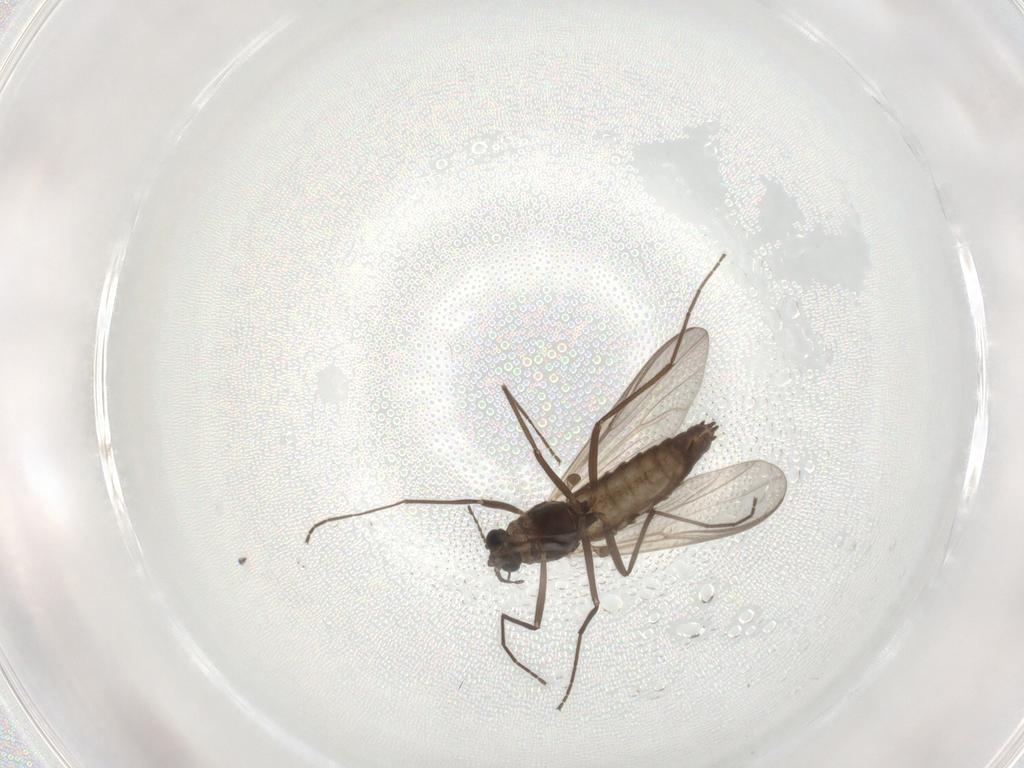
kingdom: Animalia
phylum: Arthropoda
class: Insecta
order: Diptera
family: Chironomidae
